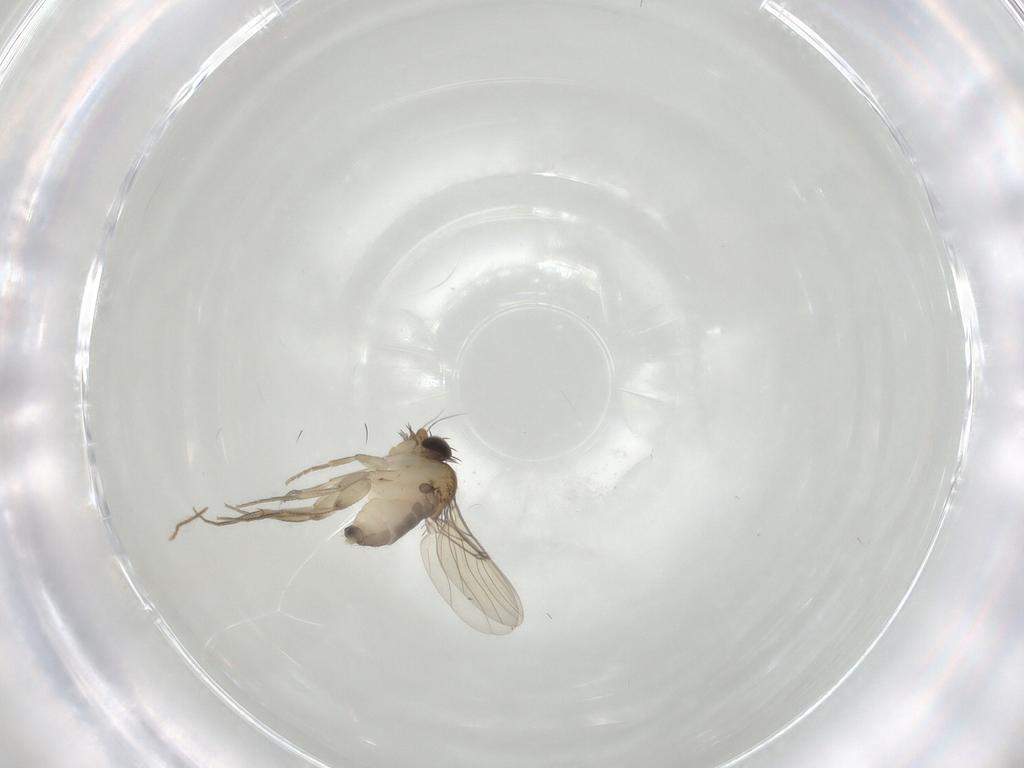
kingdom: Animalia
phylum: Arthropoda
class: Insecta
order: Diptera
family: Phoridae
